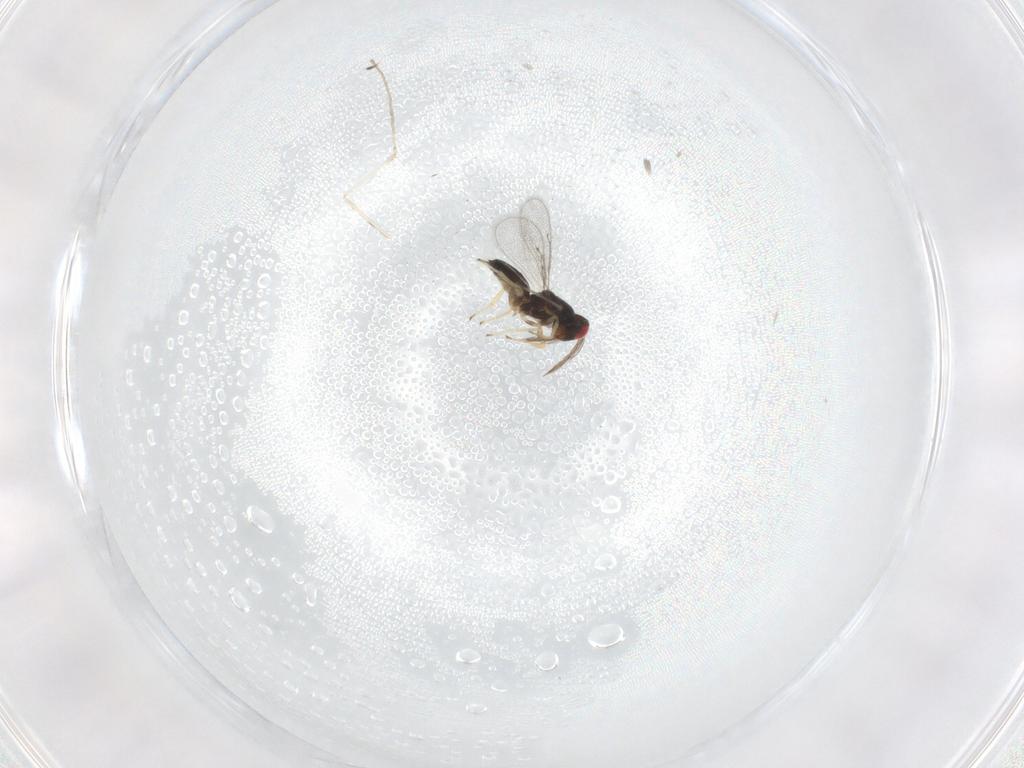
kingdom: Animalia
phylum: Arthropoda
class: Insecta
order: Hymenoptera
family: Eulophidae
